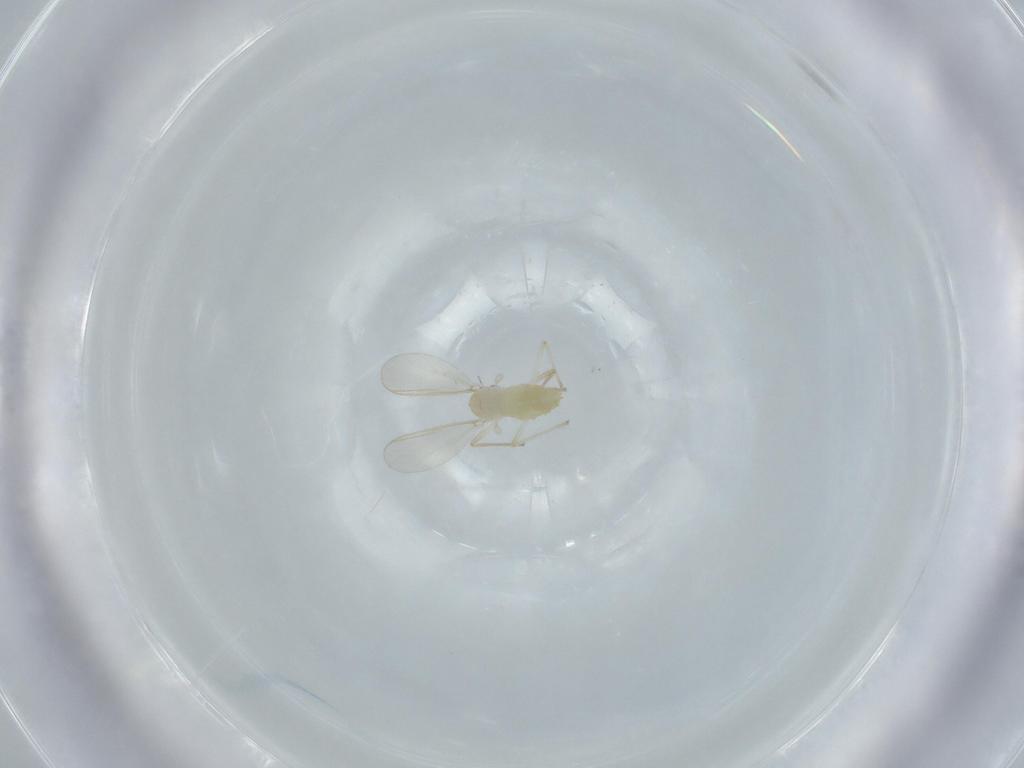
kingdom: Animalia
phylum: Arthropoda
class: Insecta
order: Diptera
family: Chironomidae
